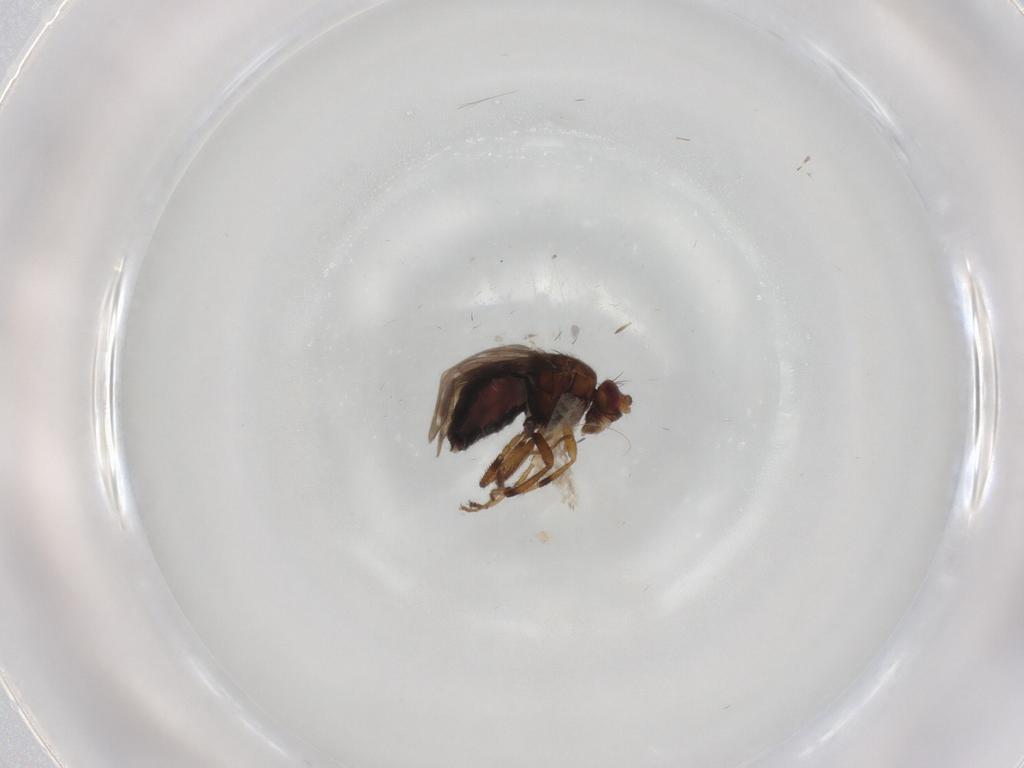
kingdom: Animalia
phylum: Arthropoda
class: Insecta
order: Diptera
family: Sphaeroceridae
